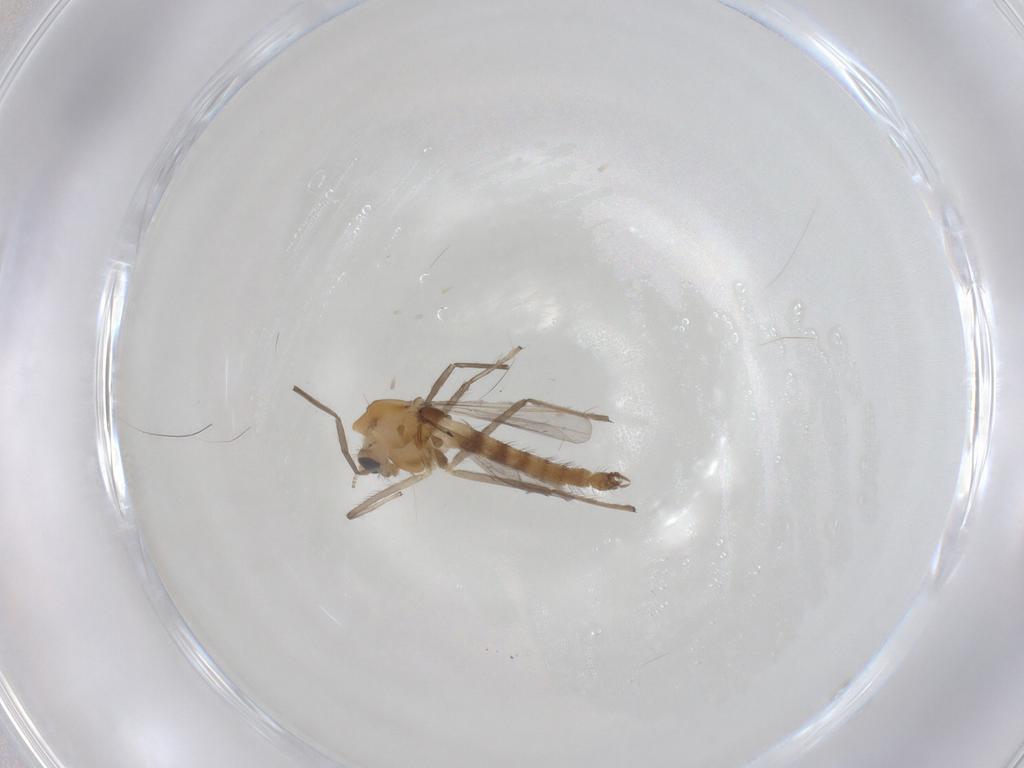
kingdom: Animalia
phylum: Arthropoda
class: Insecta
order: Diptera
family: Chironomidae
